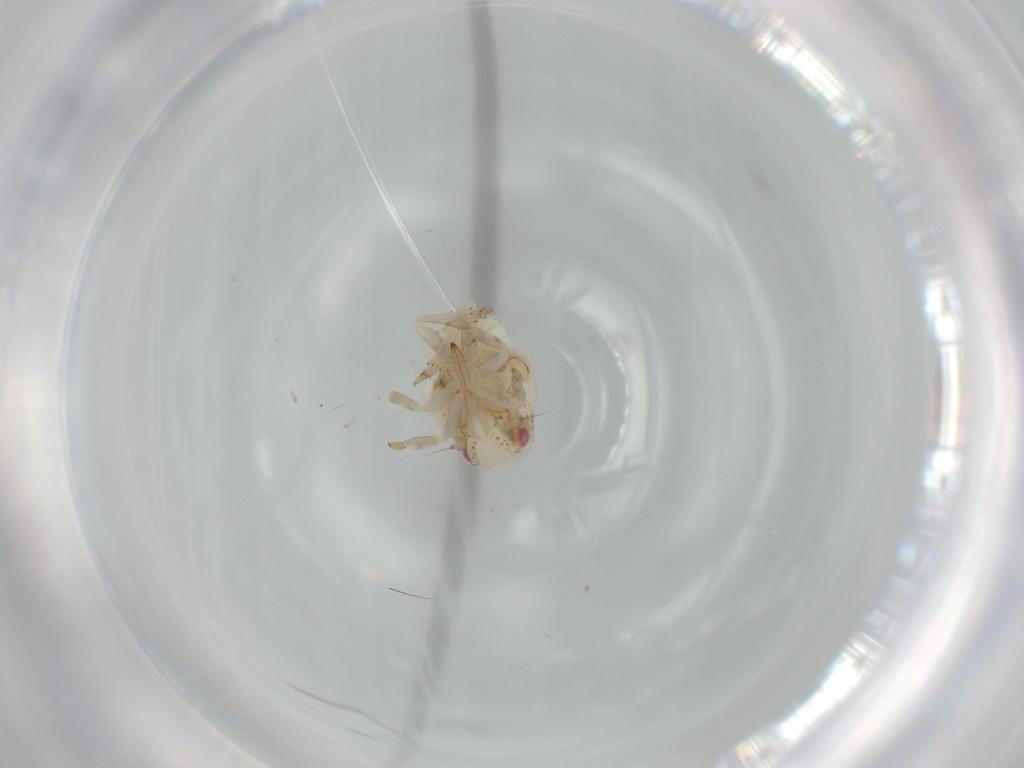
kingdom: Animalia
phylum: Arthropoda
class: Insecta
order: Hemiptera
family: Acanaloniidae
